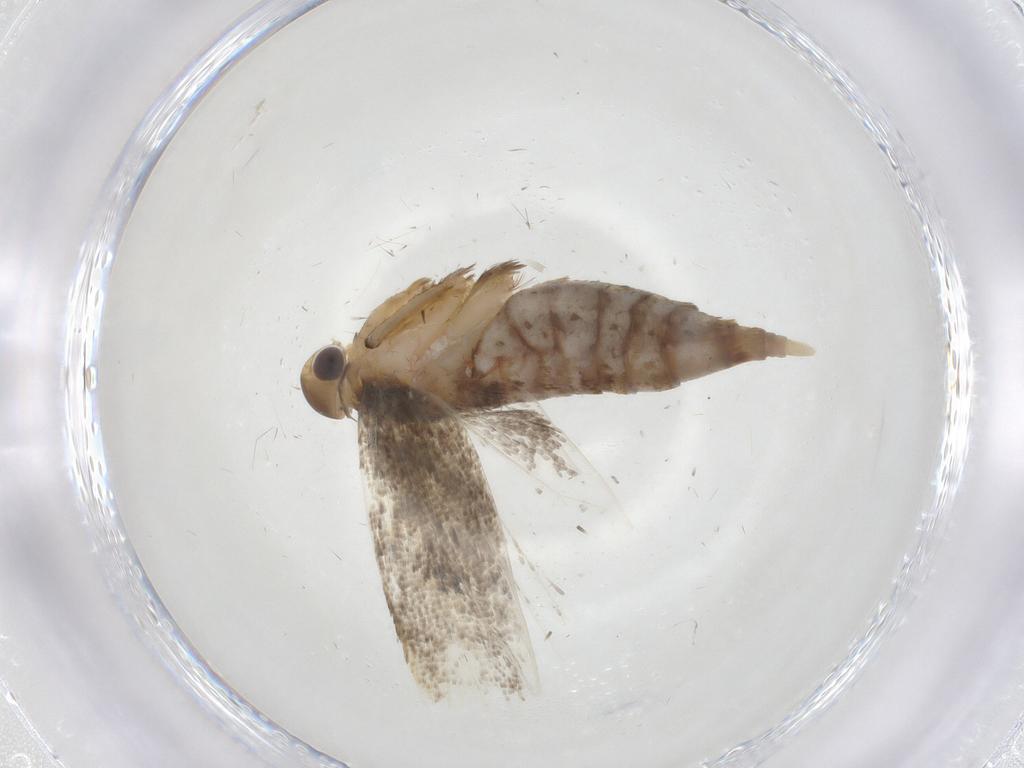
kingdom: Animalia
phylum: Arthropoda
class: Insecta
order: Lepidoptera
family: Lecithoceridae
